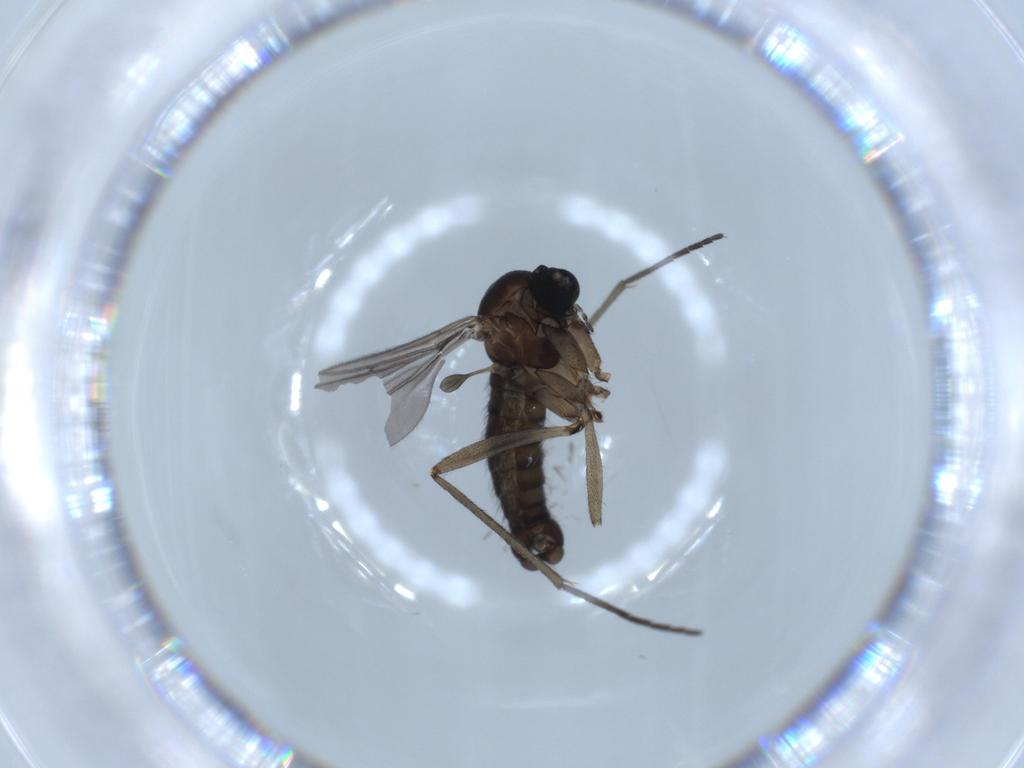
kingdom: Animalia
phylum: Arthropoda
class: Insecta
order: Diptera
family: Sciaridae
